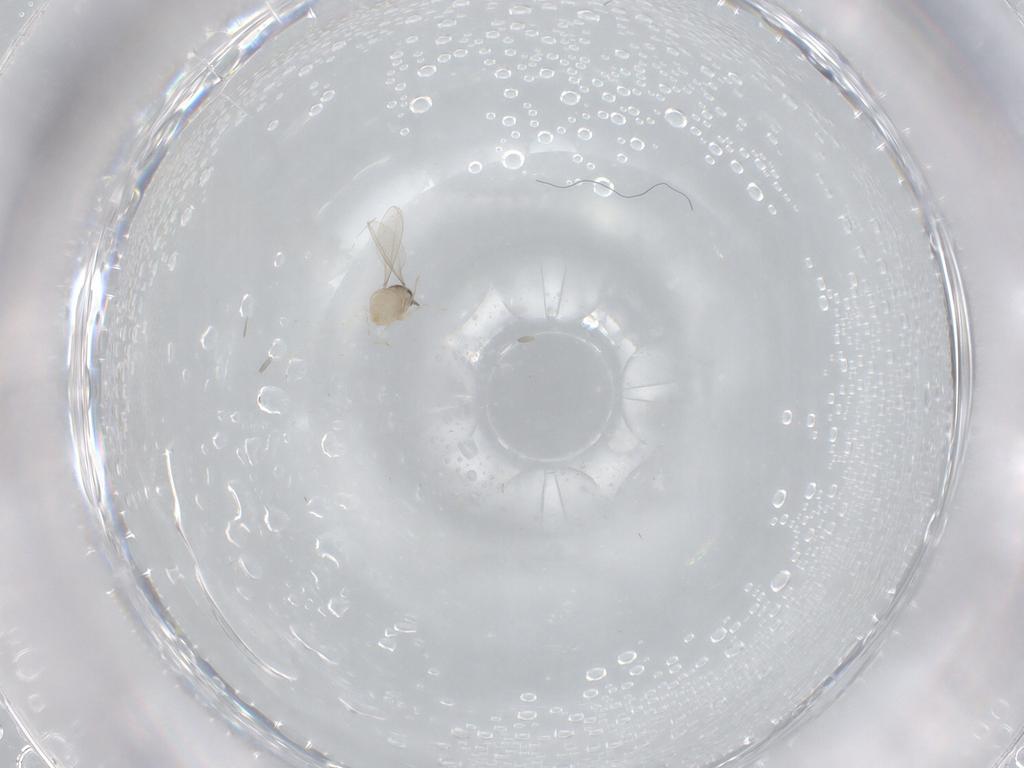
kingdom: Animalia
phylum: Arthropoda
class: Insecta
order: Diptera
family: Cecidomyiidae
